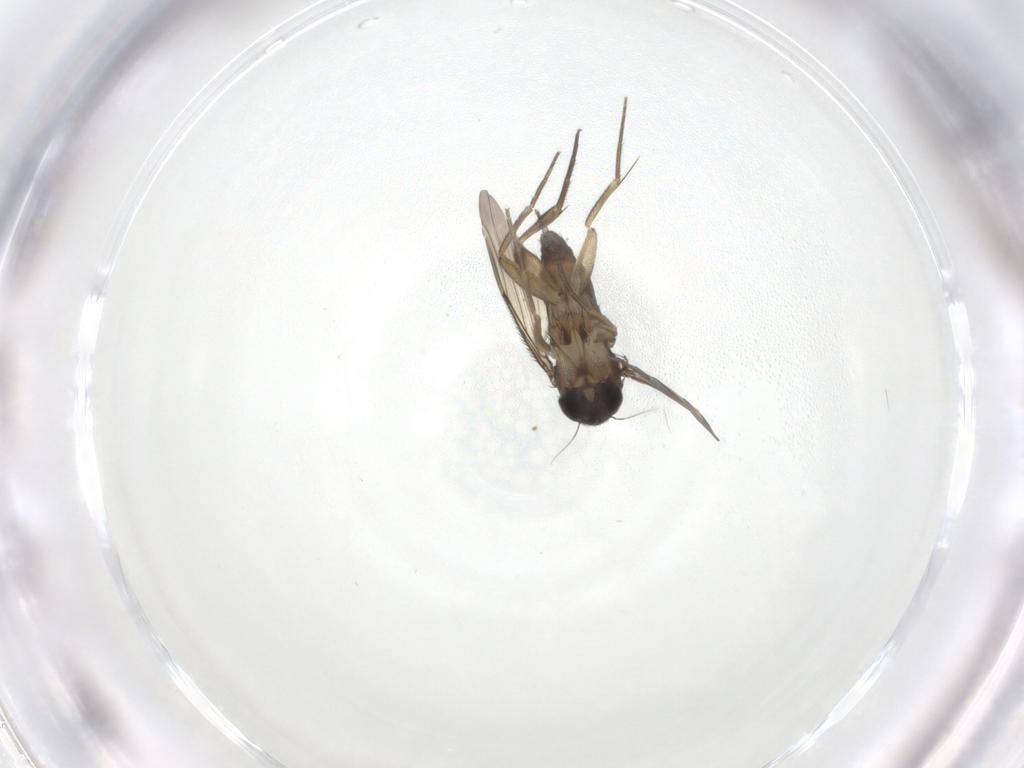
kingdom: Animalia
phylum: Arthropoda
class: Insecta
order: Diptera
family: Phoridae
